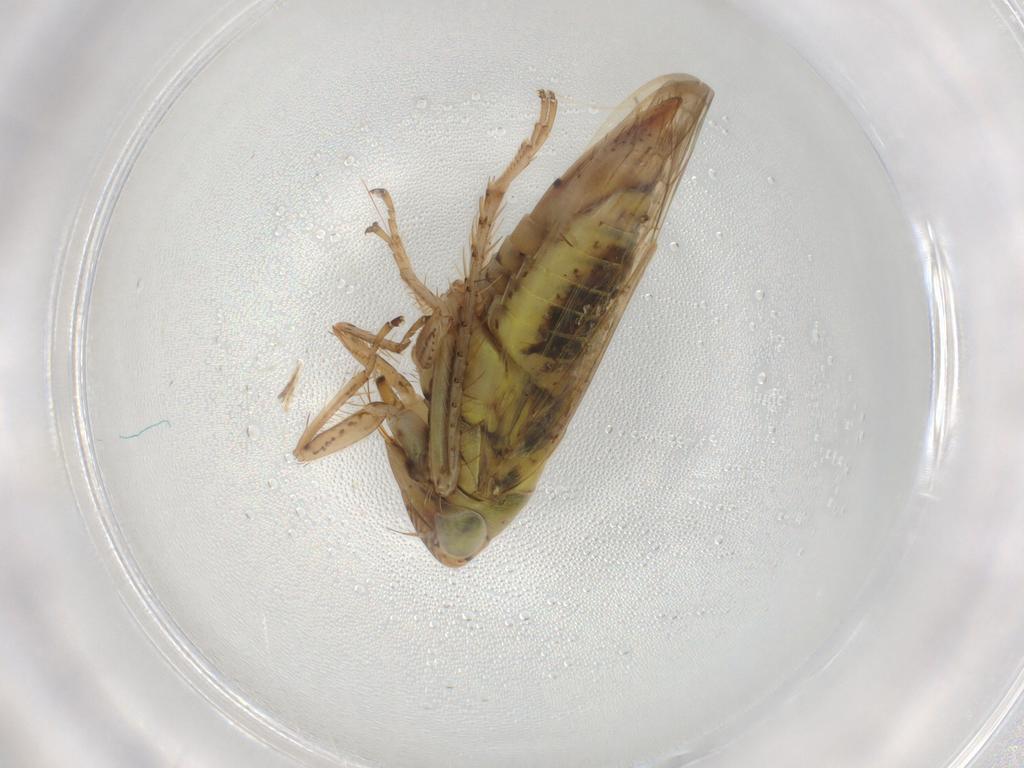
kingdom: Animalia
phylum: Arthropoda
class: Insecta
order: Hemiptera
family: Cicadellidae
